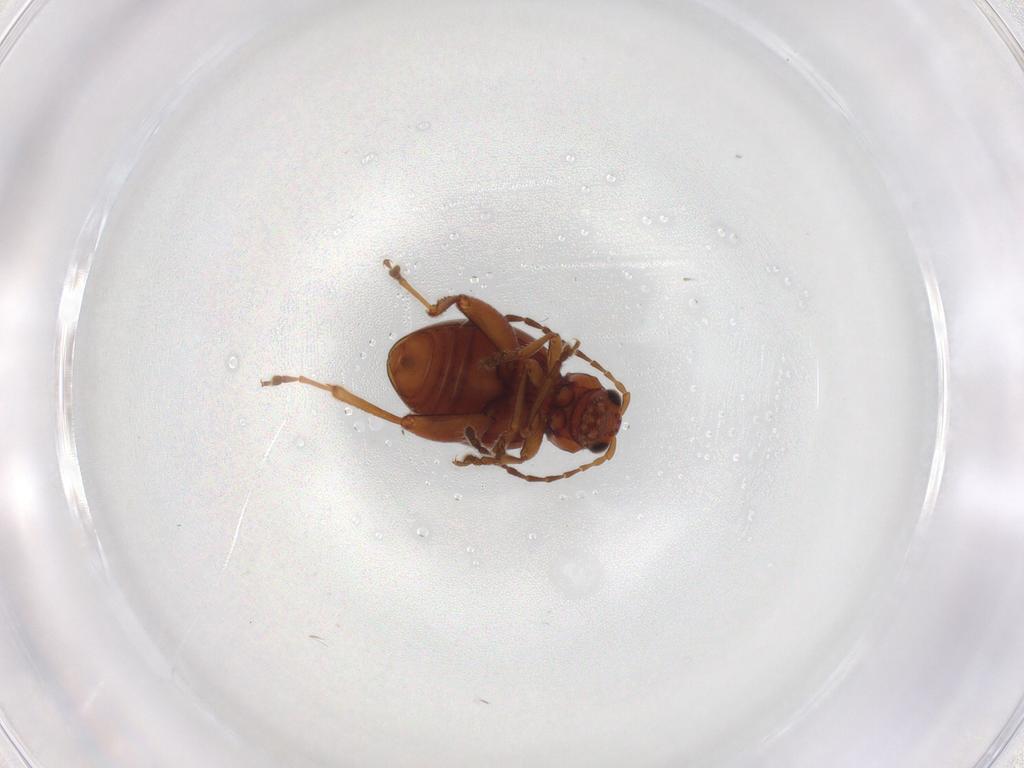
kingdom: Animalia
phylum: Arthropoda
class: Insecta
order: Coleoptera
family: Chrysomelidae
